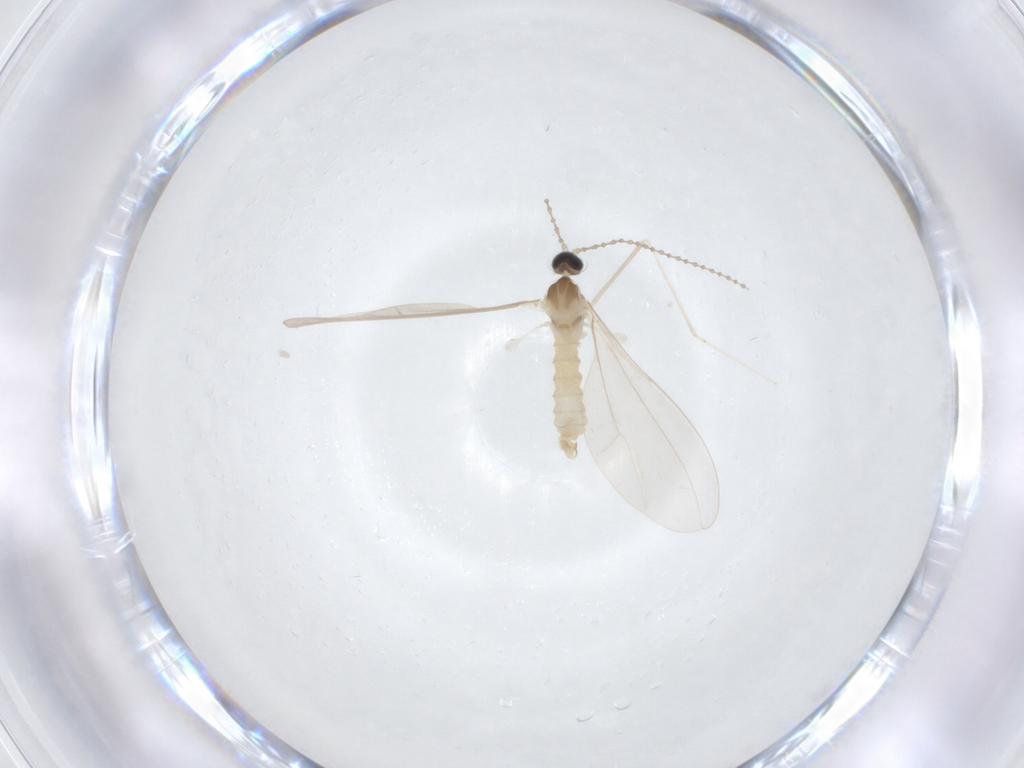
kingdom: Animalia
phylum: Arthropoda
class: Insecta
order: Diptera
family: Cecidomyiidae
